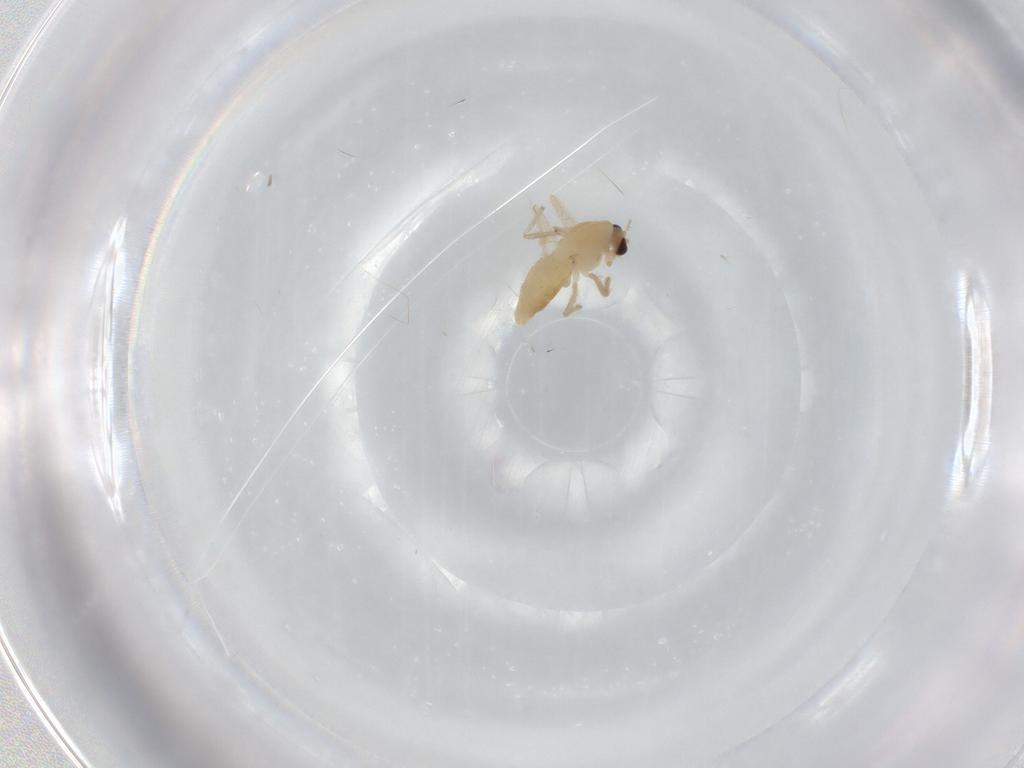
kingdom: Animalia
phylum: Arthropoda
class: Insecta
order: Diptera
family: Chironomidae
